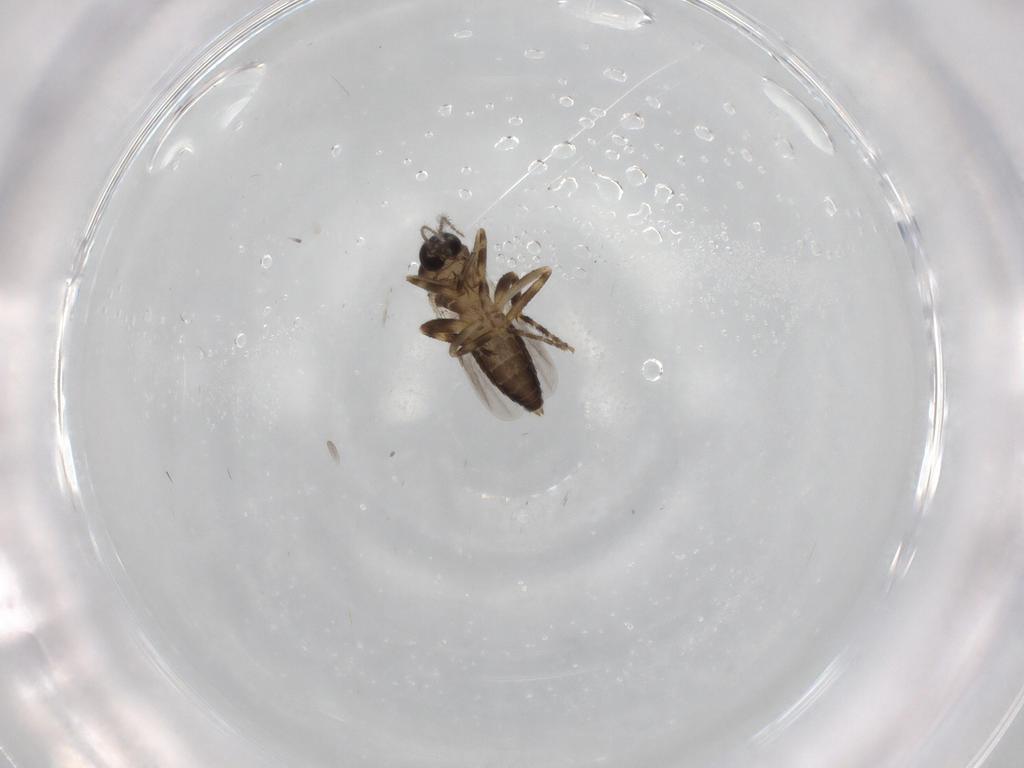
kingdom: Animalia
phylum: Arthropoda
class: Insecta
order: Diptera
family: Ceratopogonidae
